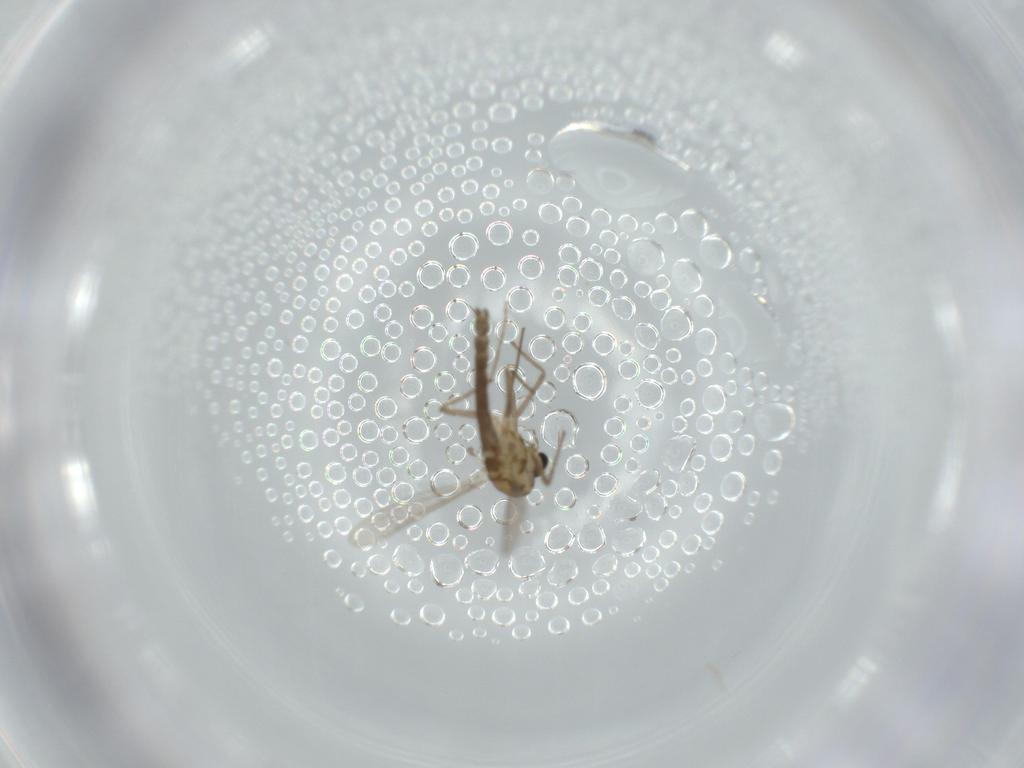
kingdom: Animalia
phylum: Arthropoda
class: Insecta
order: Diptera
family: Chironomidae
